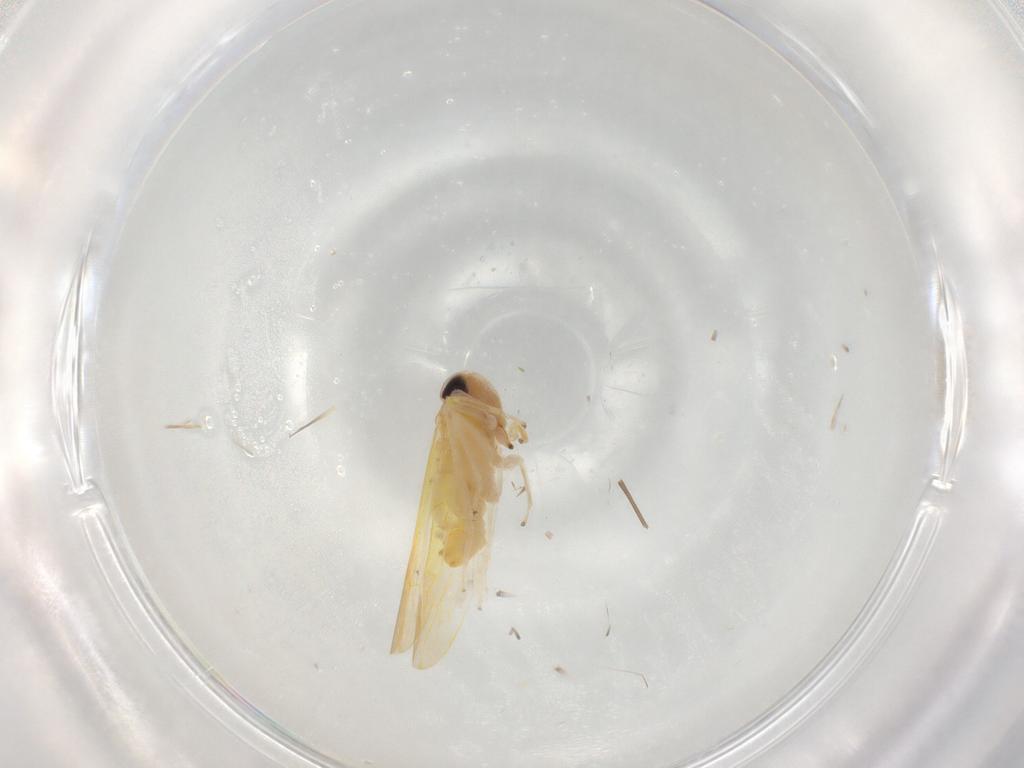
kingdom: Animalia
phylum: Arthropoda
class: Insecta
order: Hemiptera
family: Cicadellidae
